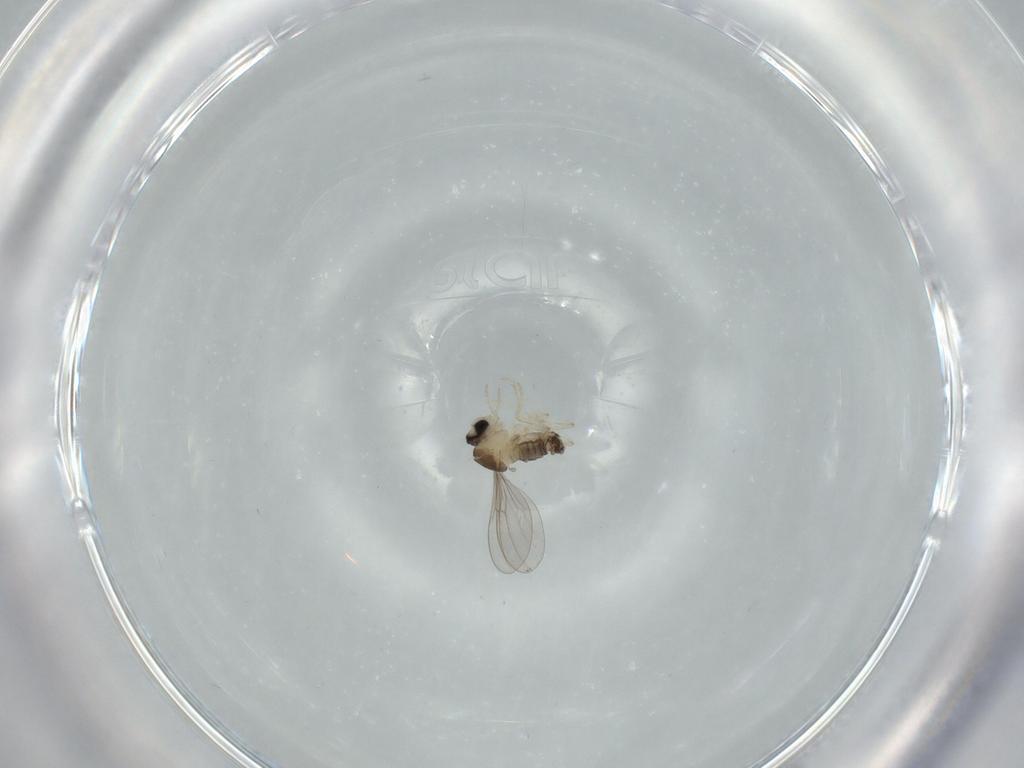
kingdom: Animalia
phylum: Arthropoda
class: Insecta
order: Diptera
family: Cecidomyiidae
